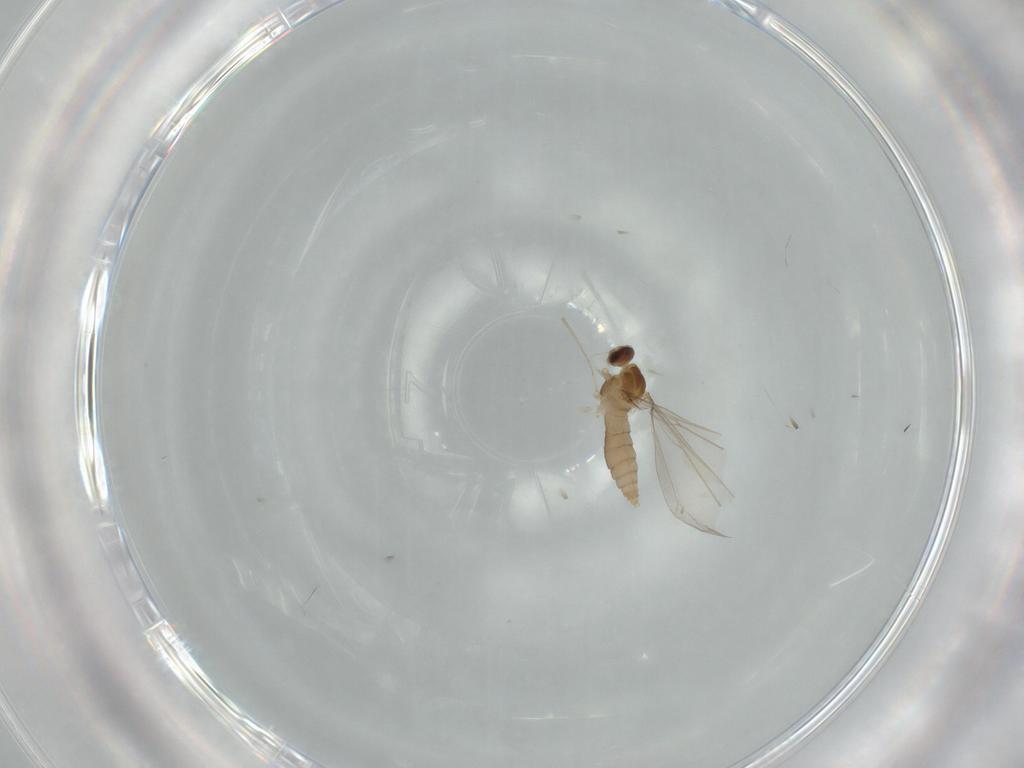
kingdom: Animalia
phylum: Arthropoda
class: Insecta
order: Diptera
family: Cecidomyiidae
